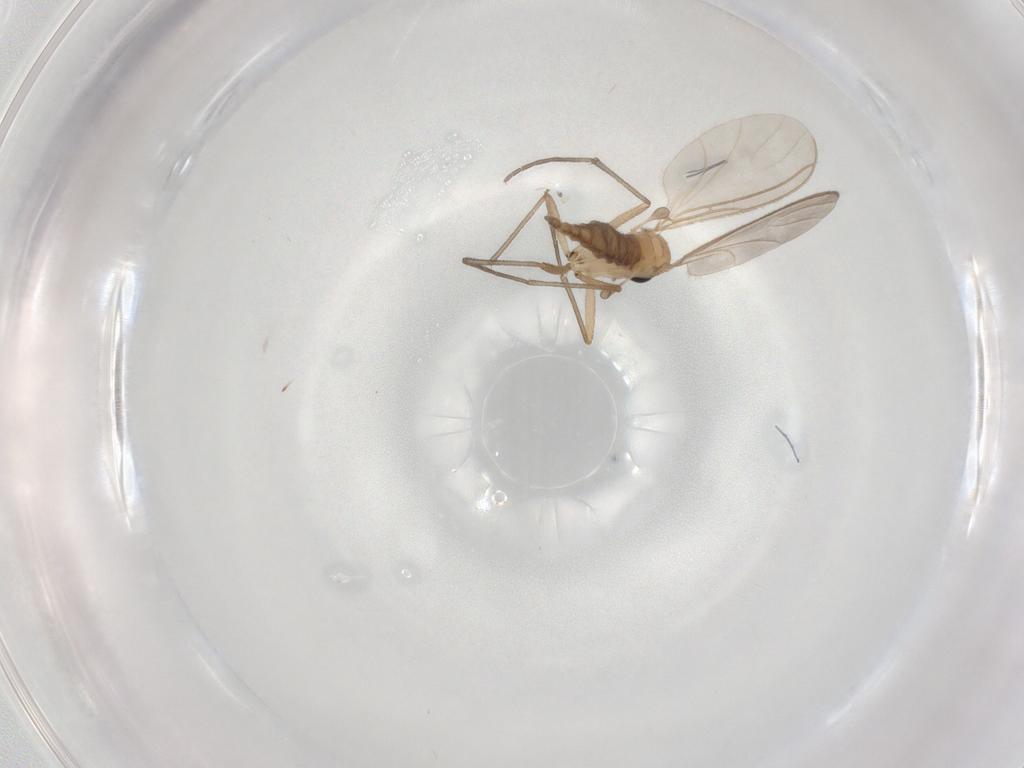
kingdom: Animalia
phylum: Arthropoda
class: Insecta
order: Diptera
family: Sciaridae
